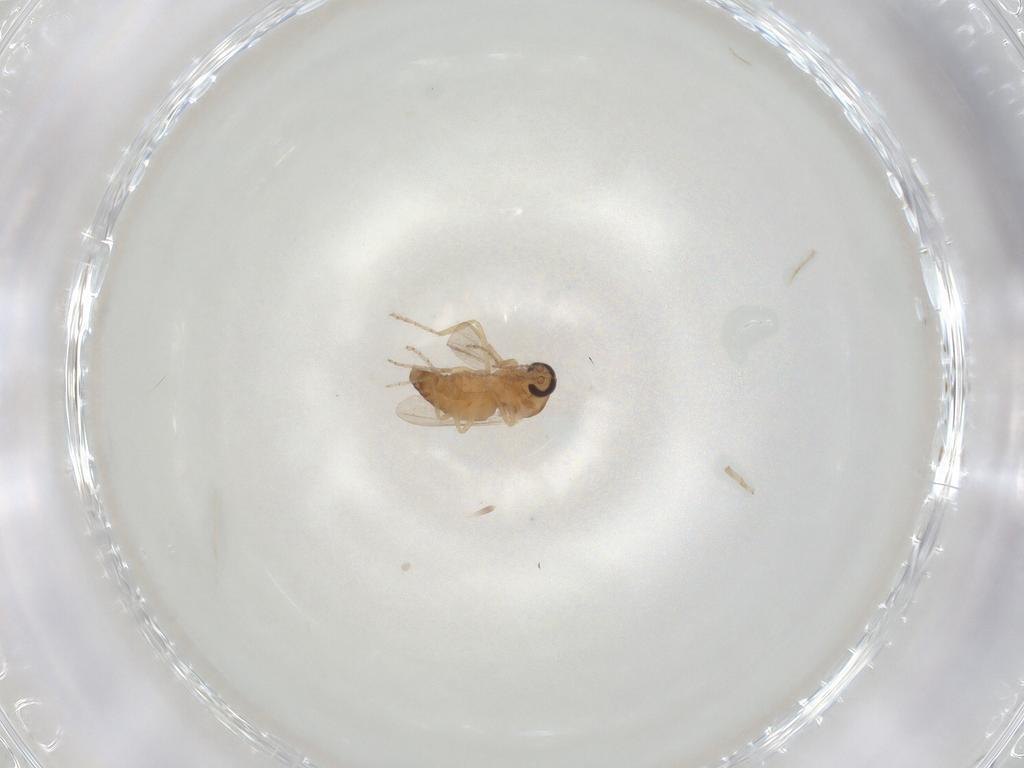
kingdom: Animalia
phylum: Arthropoda
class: Insecta
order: Diptera
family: Ceratopogonidae
